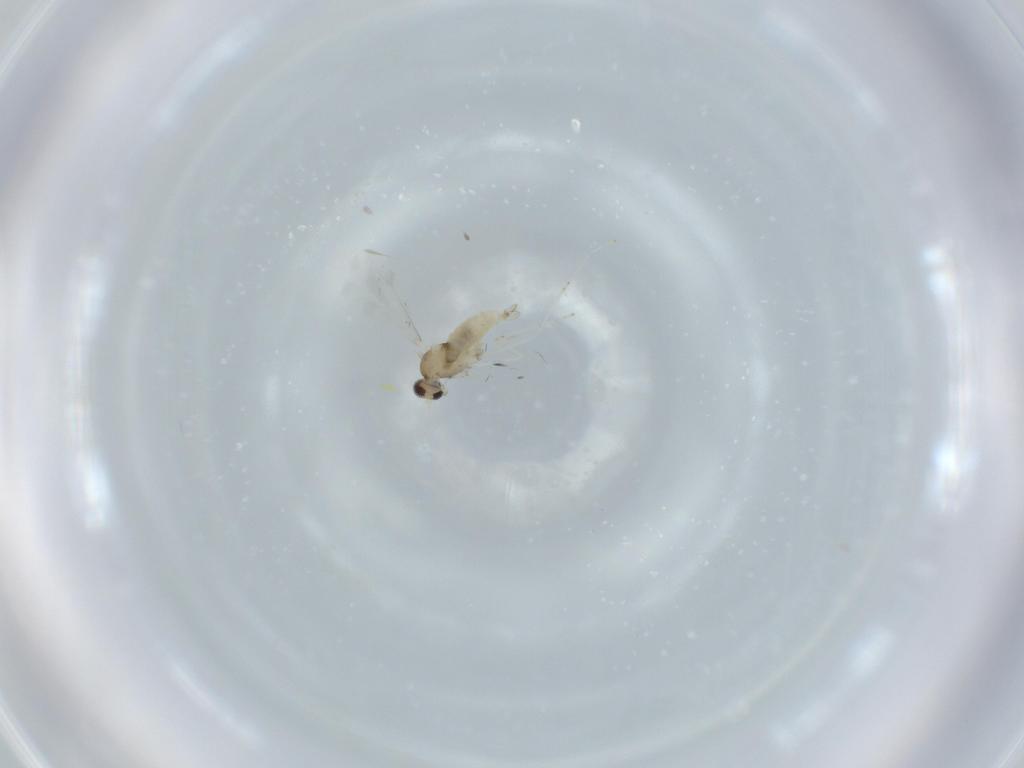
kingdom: Animalia
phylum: Arthropoda
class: Insecta
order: Diptera
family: Cecidomyiidae
